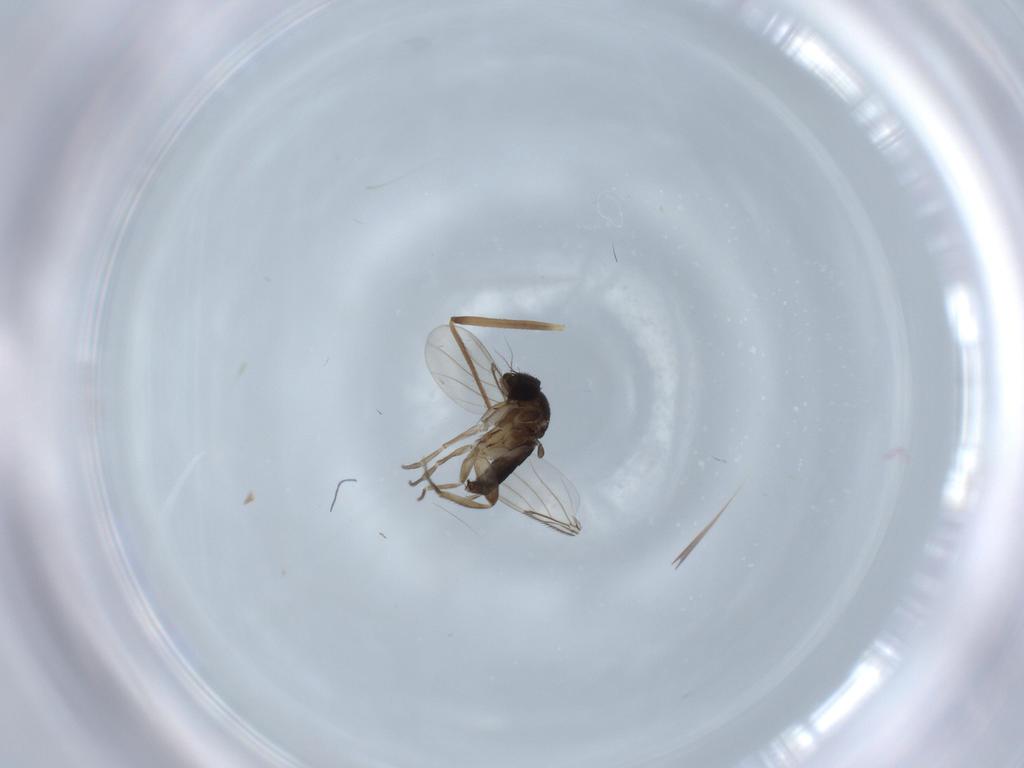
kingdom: Animalia
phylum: Arthropoda
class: Insecta
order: Diptera
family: Phoridae
